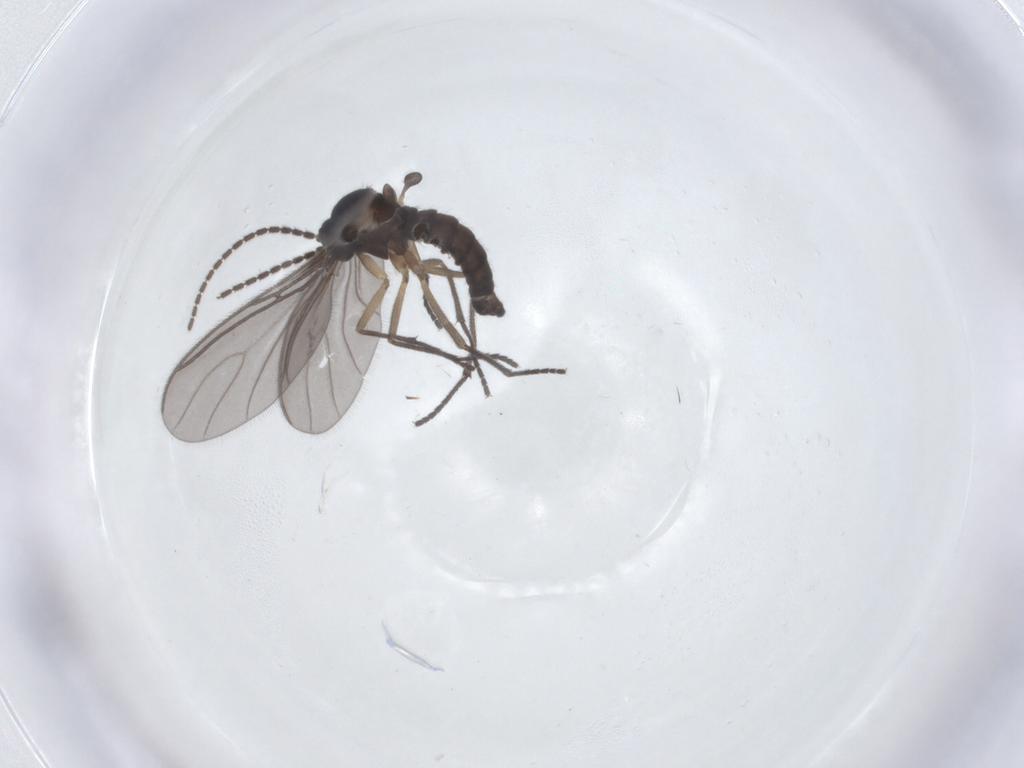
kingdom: Animalia
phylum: Arthropoda
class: Insecta
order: Diptera
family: Sciaridae
